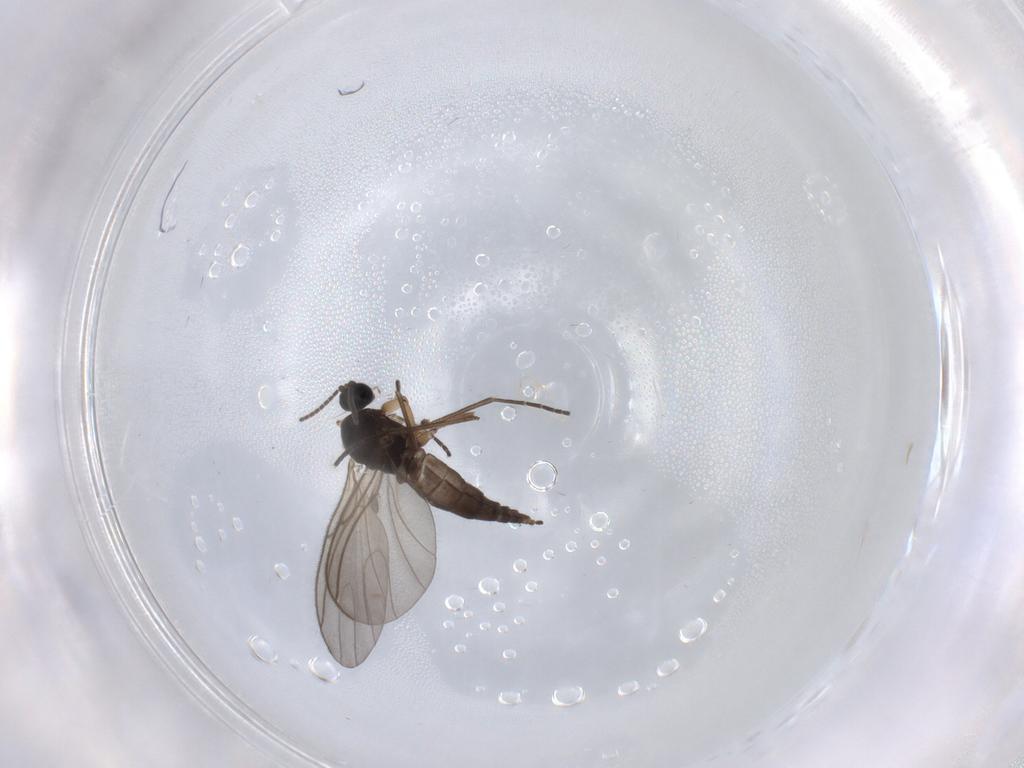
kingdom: Animalia
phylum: Arthropoda
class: Insecta
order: Diptera
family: Sciaridae
